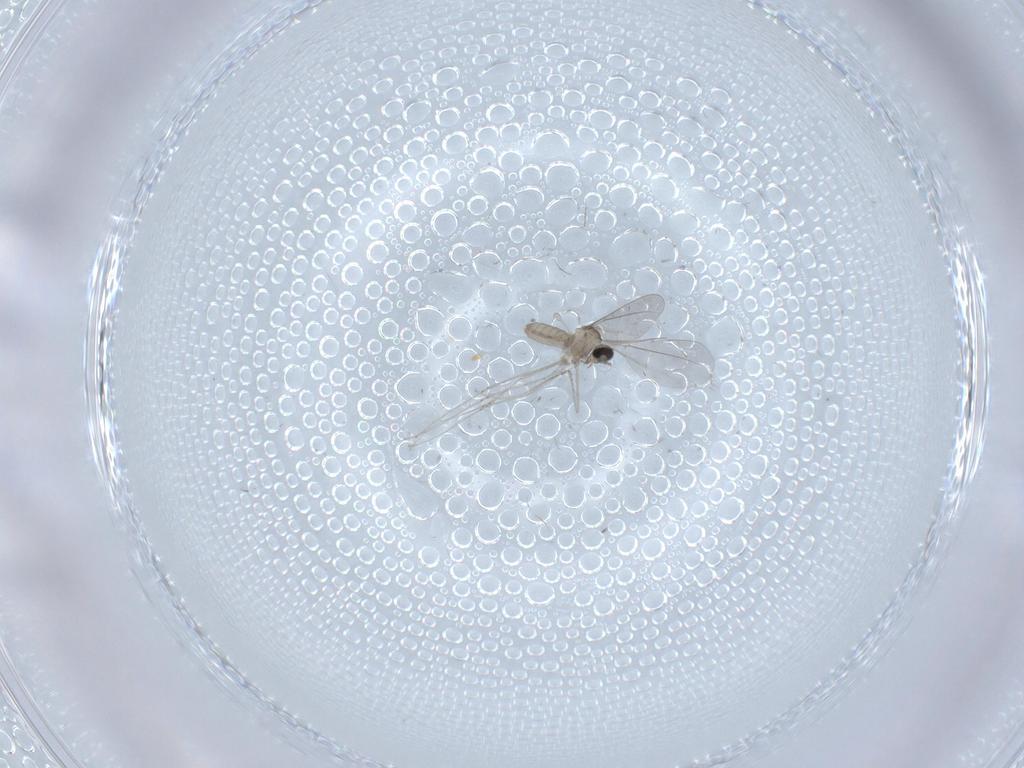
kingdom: Animalia
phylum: Arthropoda
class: Insecta
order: Diptera
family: Cecidomyiidae
